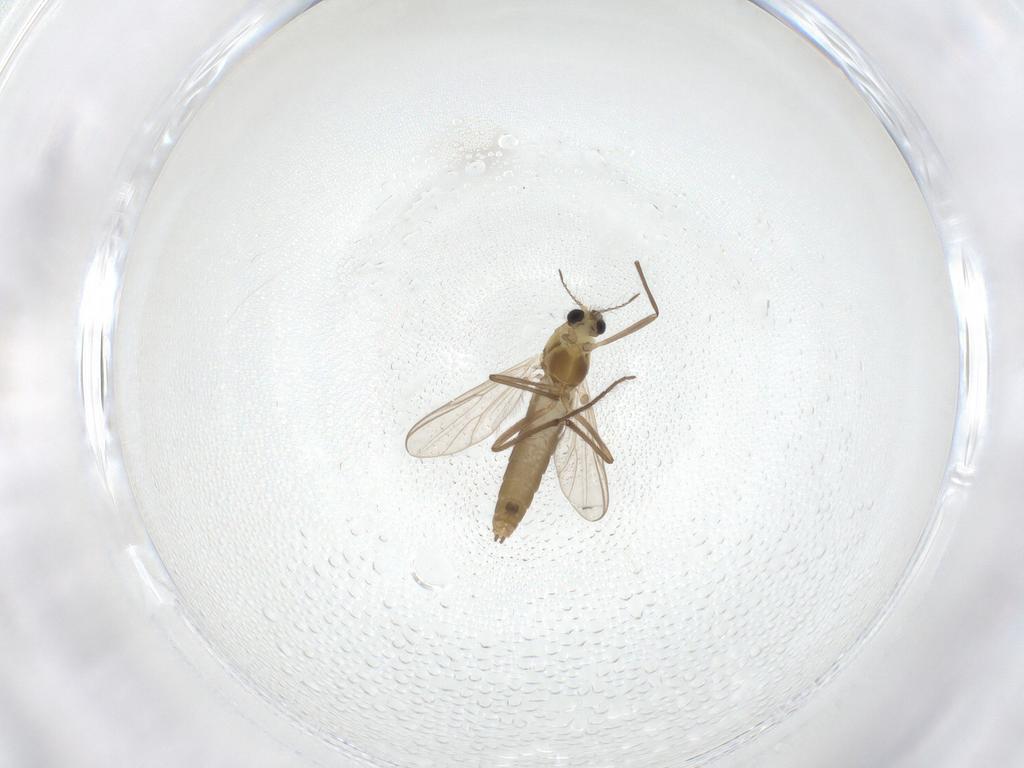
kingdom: Animalia
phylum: Arthropoda
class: Insecta
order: Diptera
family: Chironomidae
